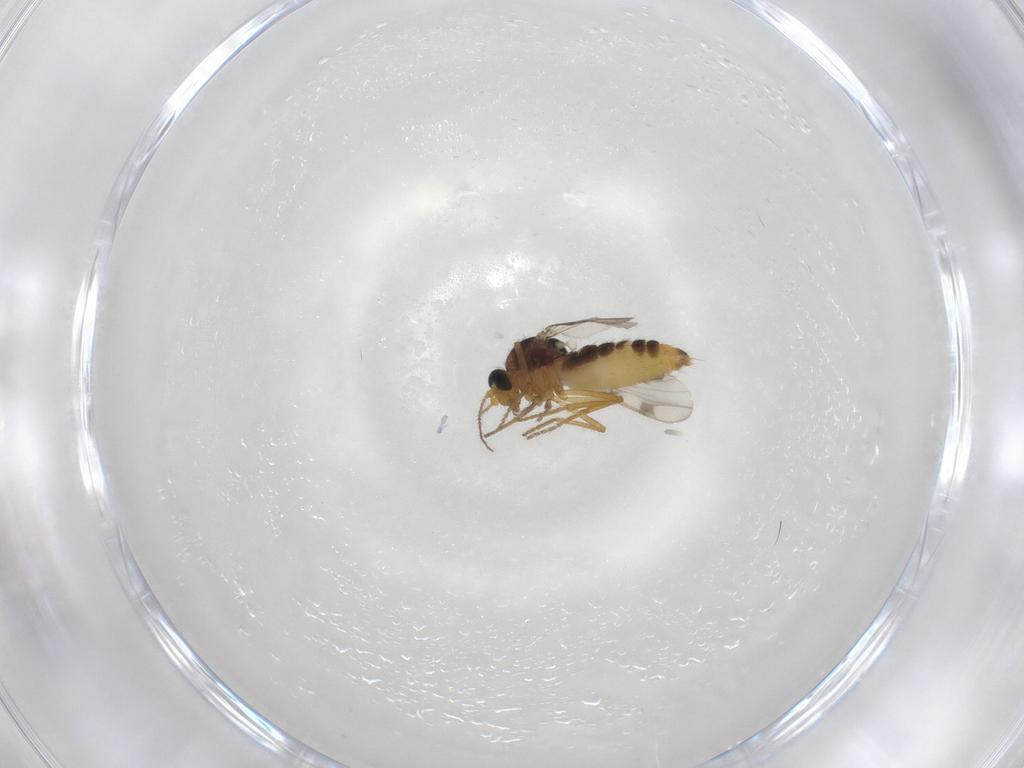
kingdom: Animalia
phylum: Arthropoda
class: Insecta
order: Diptera
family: Ceratopogonidae
